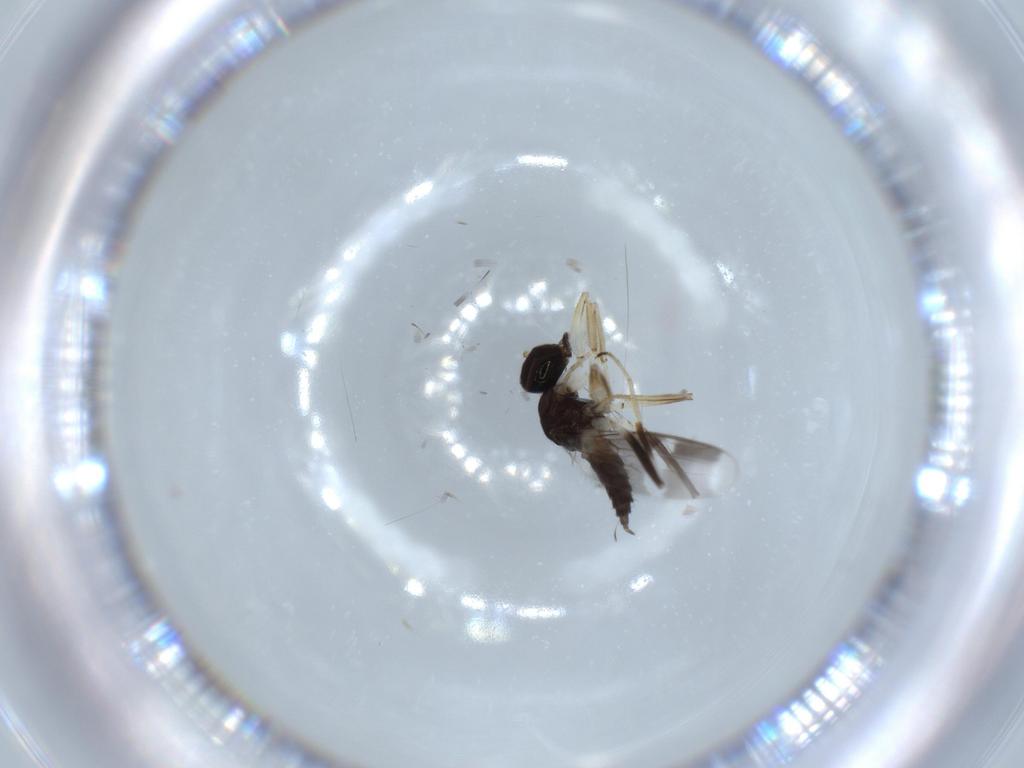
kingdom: Animalia
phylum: Arthropoda
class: Insecta
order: Diptera
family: Hybotidae
